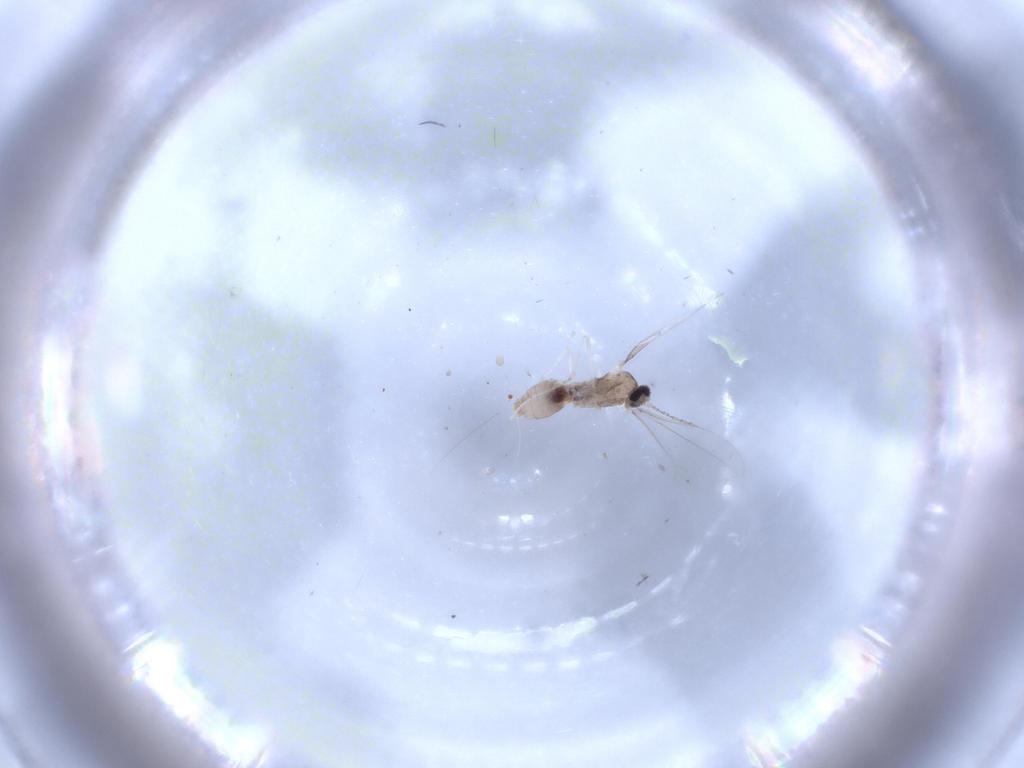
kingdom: Animalia
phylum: Arthropoda
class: Insecta
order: Diptera
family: Cecidomyiidae
